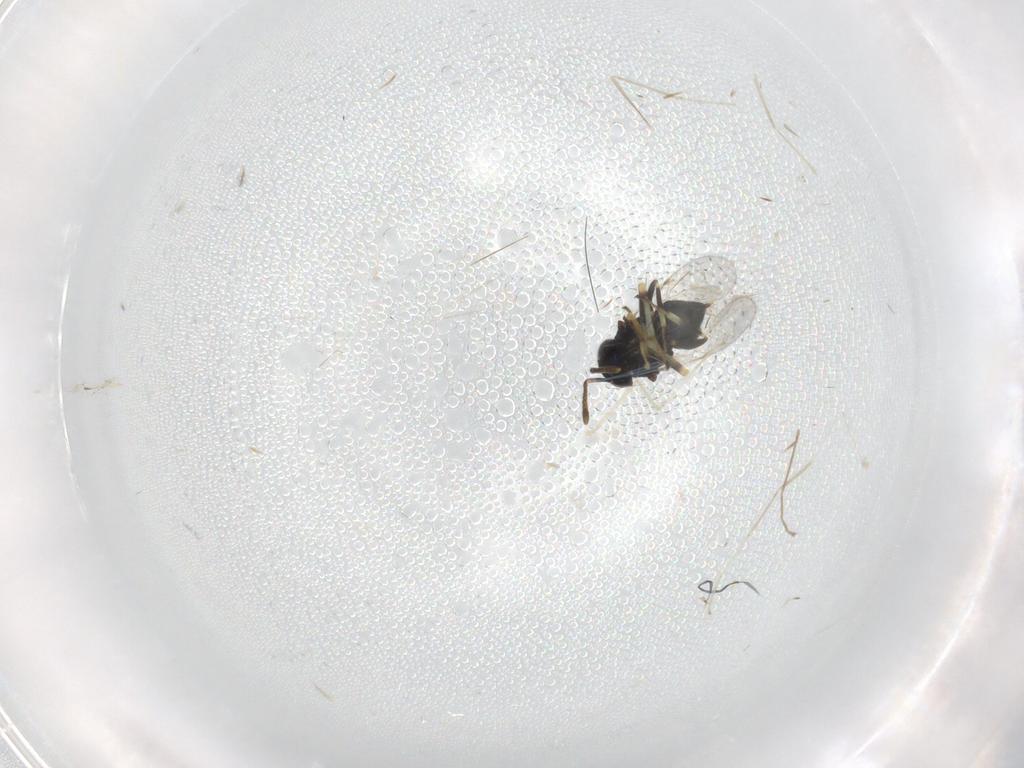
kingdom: Animalia
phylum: Arthropoda
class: Insecta
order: Hymenoptera
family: Encyrtidae
